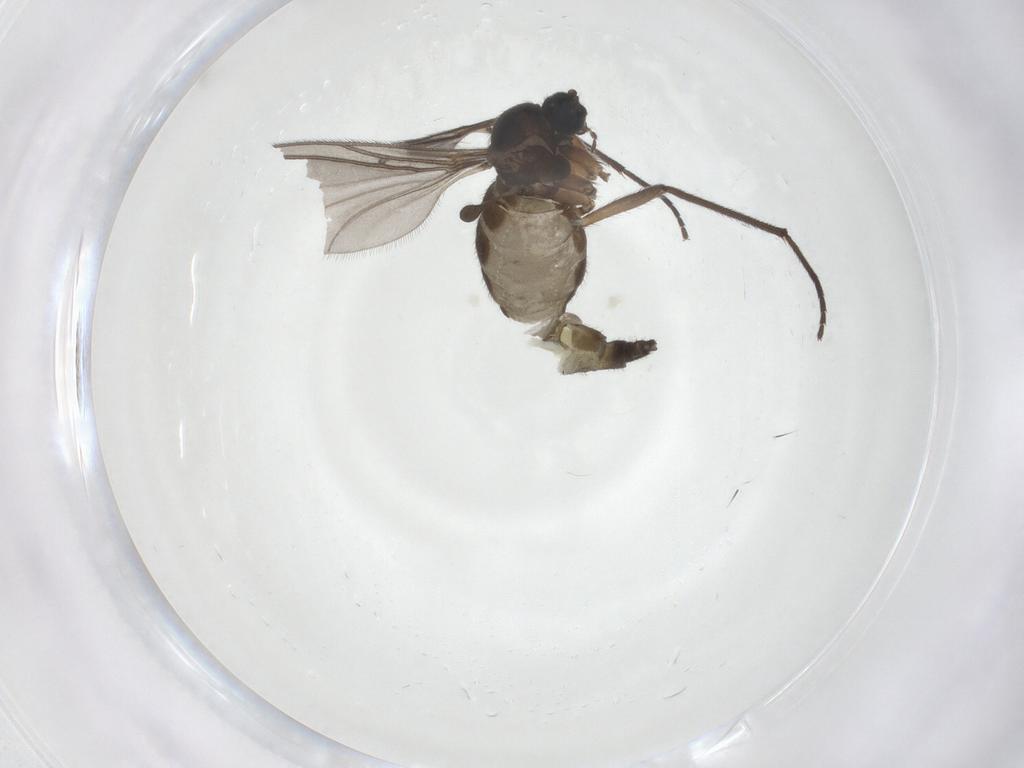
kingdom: Animalia
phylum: Arthropoda
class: Insecta
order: Diptera
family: Sciaridae
